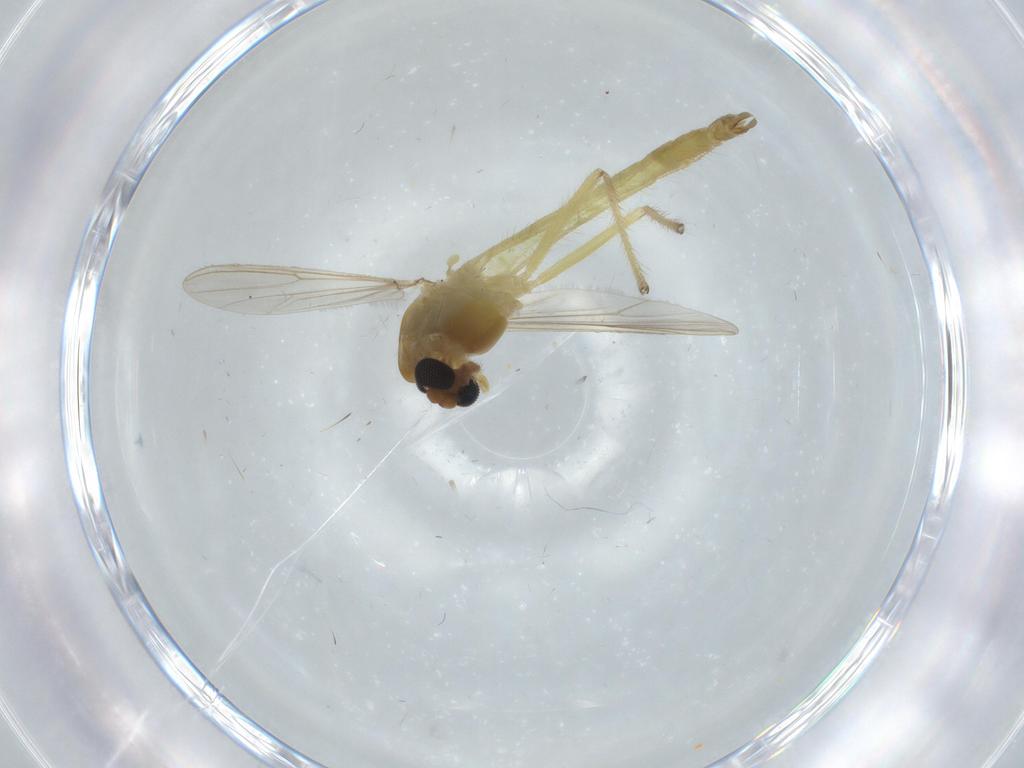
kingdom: Animalia
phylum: Arthropoda
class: Insecta
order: Diptera
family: Chironomidae
